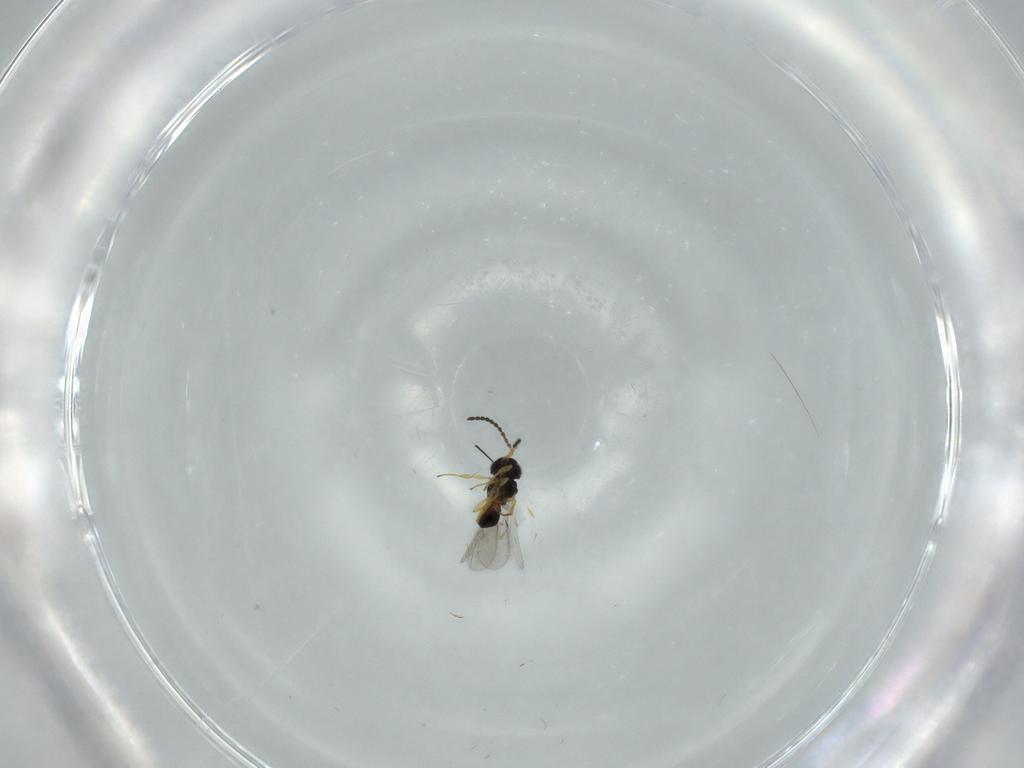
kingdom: Animalia
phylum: Arthropoda
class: Insecta
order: Hymenoptera
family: Scelionidae
